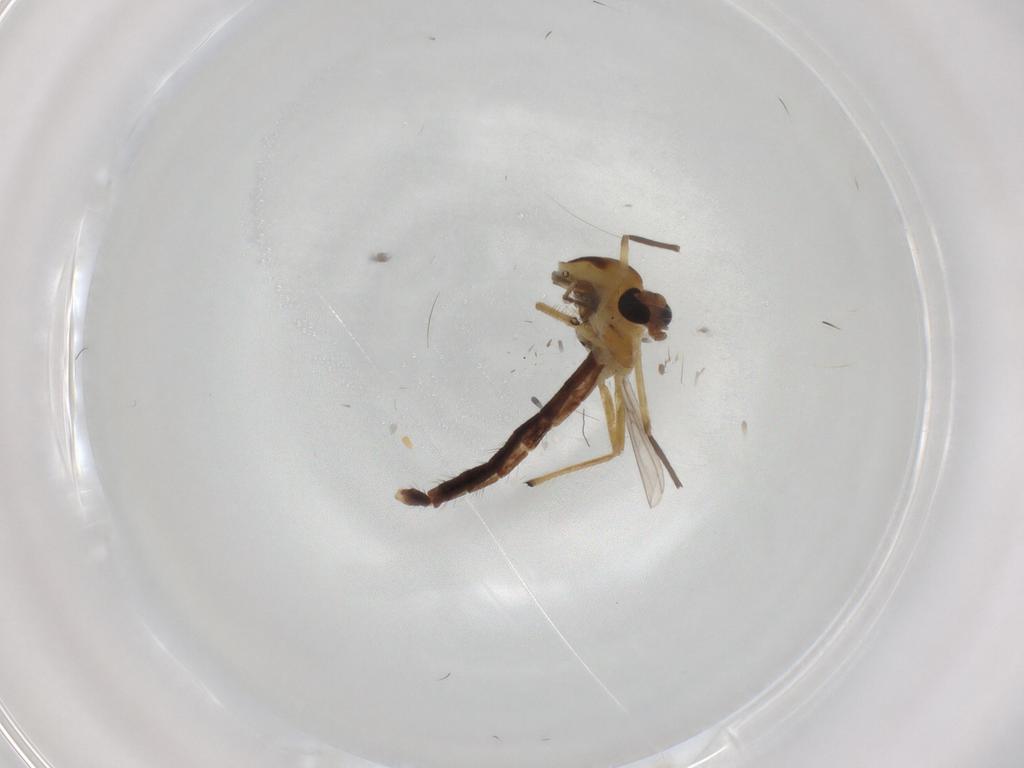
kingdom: Animalia
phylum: Arthropoda
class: Insecta
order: Diptera
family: Chironomidae
